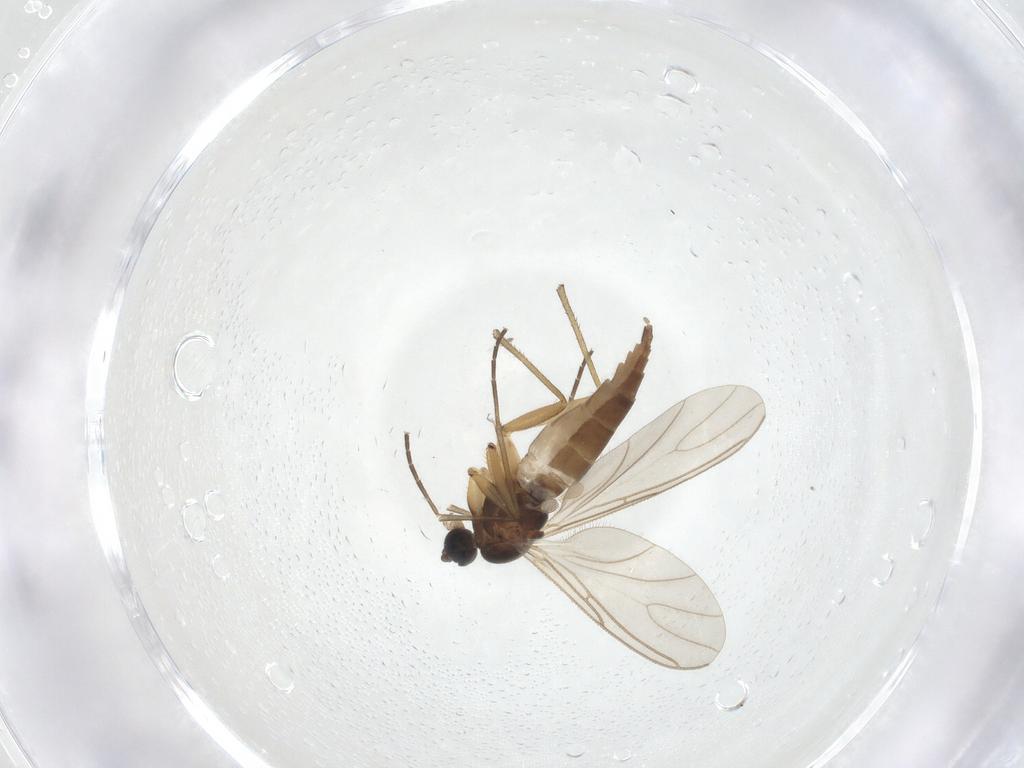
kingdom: Animalia
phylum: Arthropoda
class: Insecta
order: Diptera
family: Sciaridae
